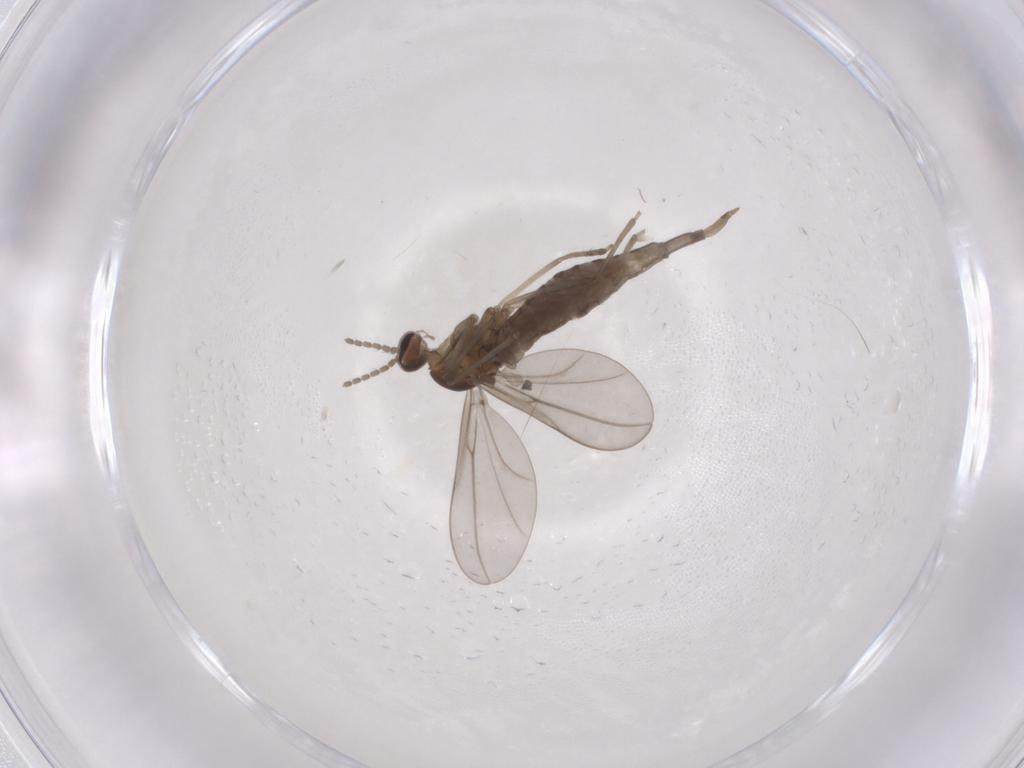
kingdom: Animalia
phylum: Arthropoda
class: Insecta
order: Diptera
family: Cecidomyiidae
